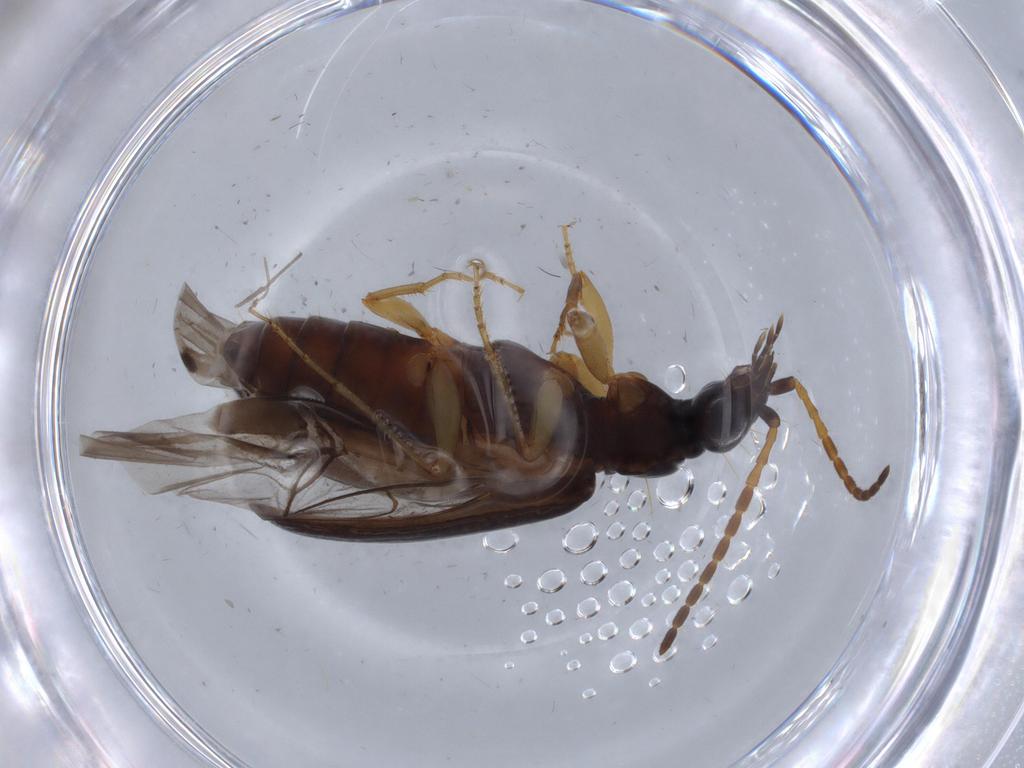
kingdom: Animalia
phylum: Arthropoda
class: Insecta
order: Coleoptera
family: Carabidae
